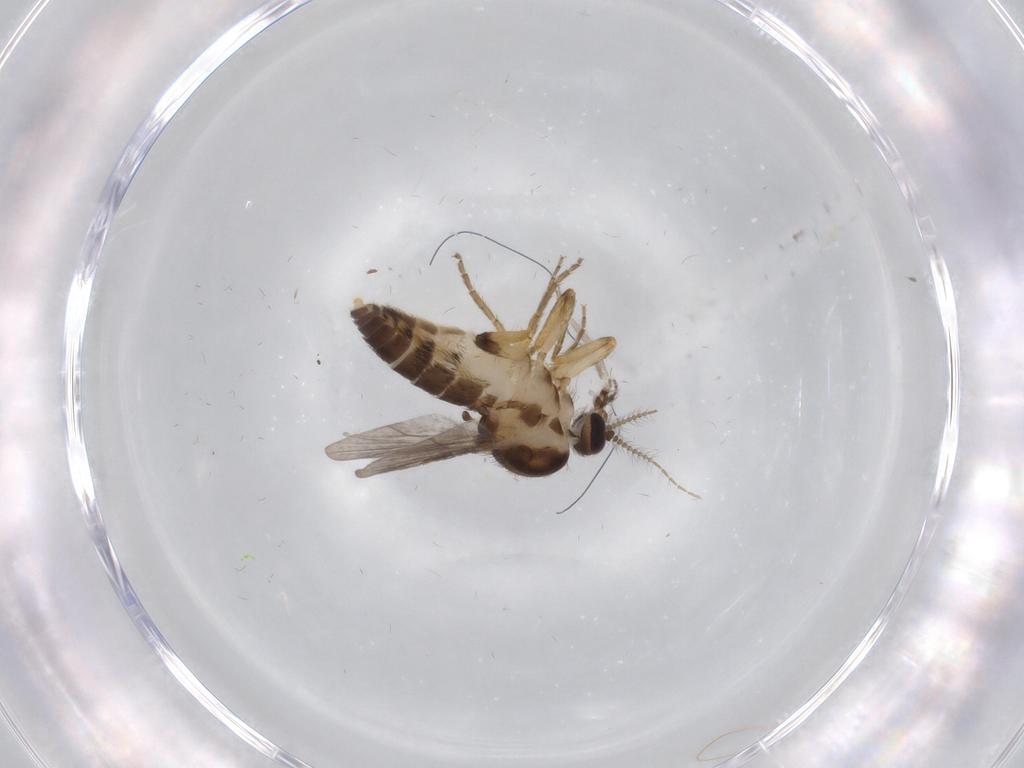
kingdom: Animalia
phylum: Arthropoda
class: Insecta
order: Diptera
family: Ceratopogonidae
